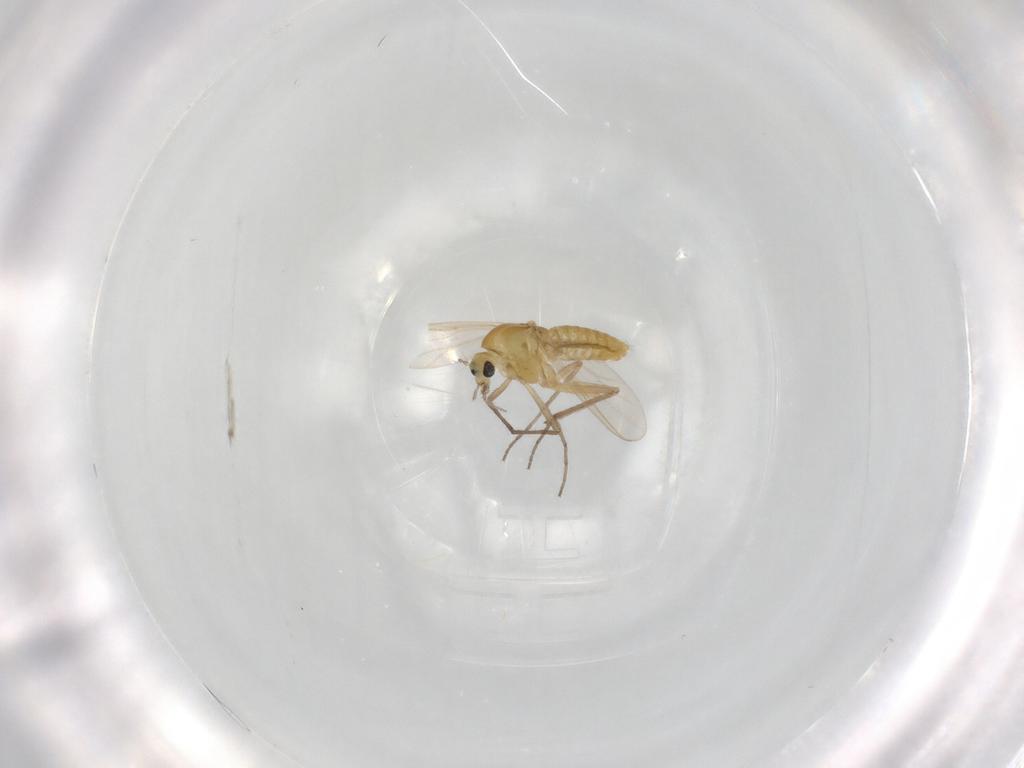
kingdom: Animalia
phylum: Arthropoda
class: Insecta
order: Diptera
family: Chironomidae
